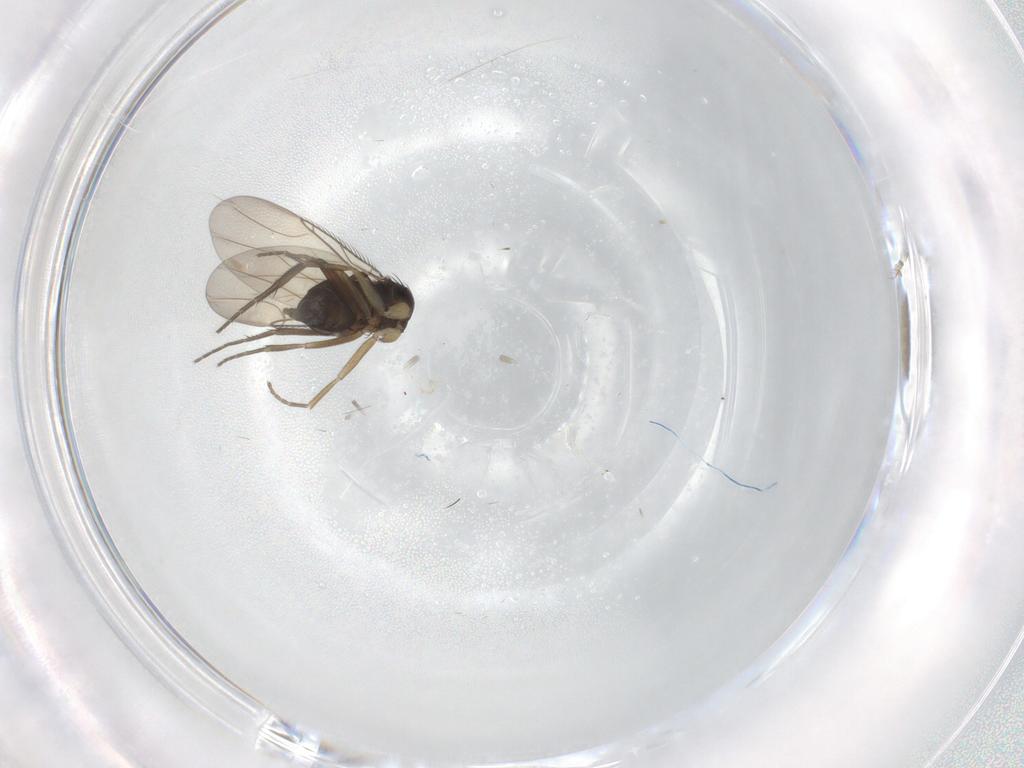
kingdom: Animalia
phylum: Arthropoda
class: Insecta
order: Diptera
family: Phoridae
